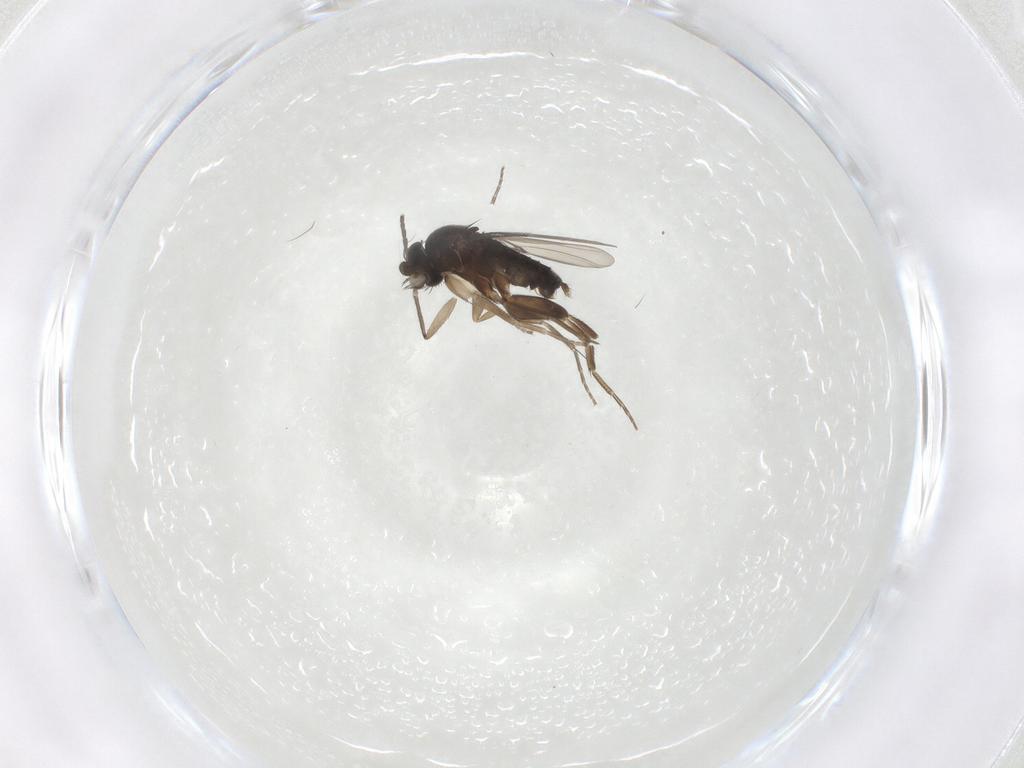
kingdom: Animalia
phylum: Arthropoda
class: Insecta
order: Diptera
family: Phoridae
